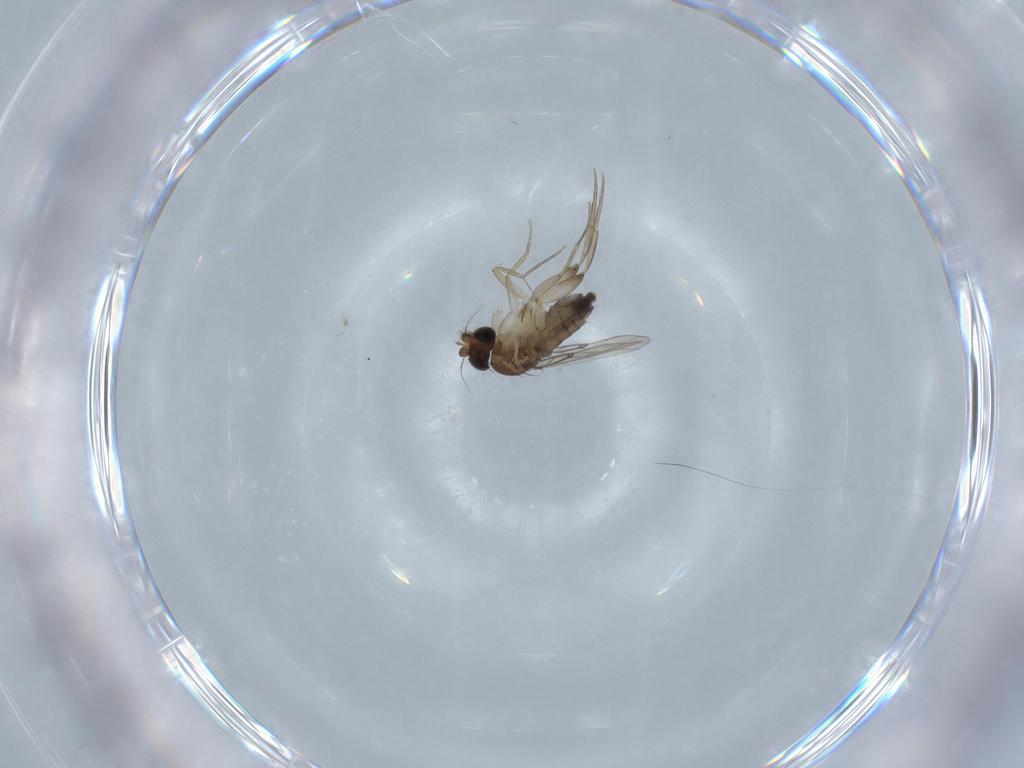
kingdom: Animalia
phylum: Arthropoda
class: Insecta
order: Diptera
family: Phoridae
